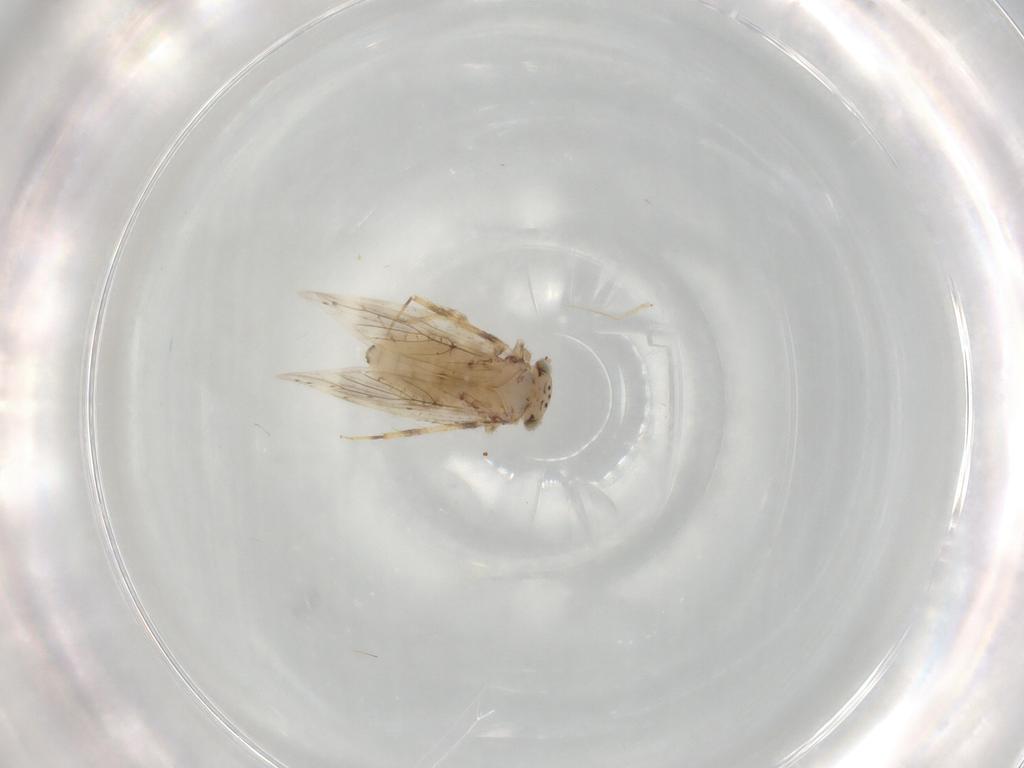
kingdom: Animalia
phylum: Arthropoda
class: Insecta
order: Psocodea
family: Lepidopsocidae
